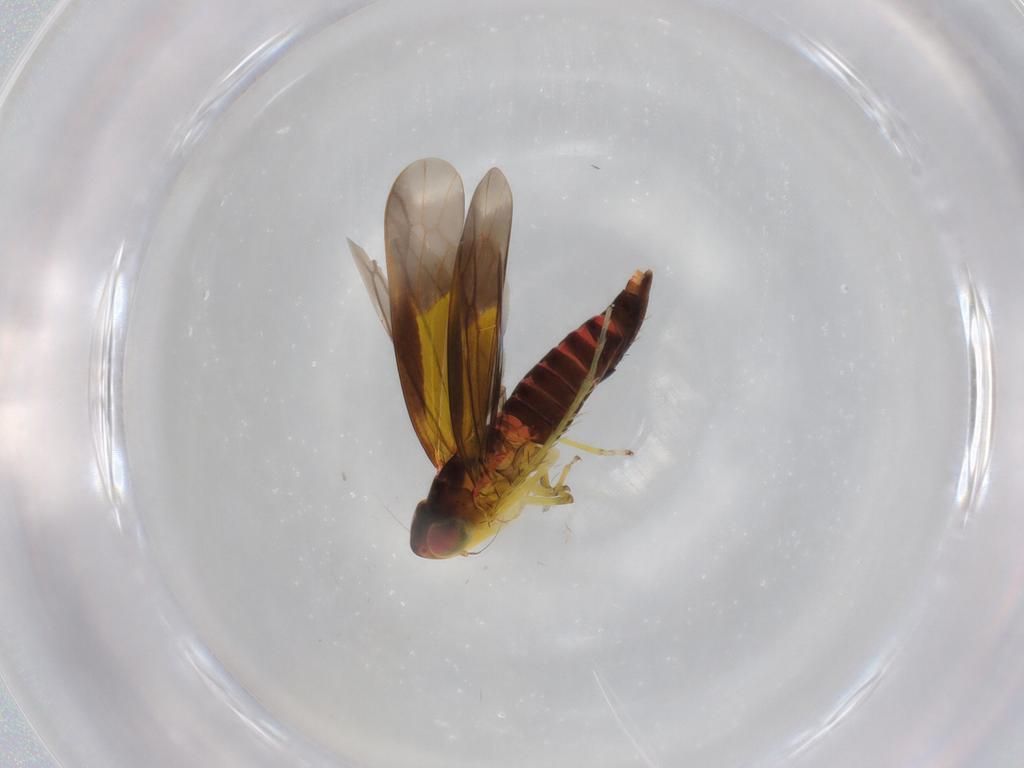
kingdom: Animalia
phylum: Arthropoda
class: Insecta
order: Hemiptera
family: Cicadellidae
